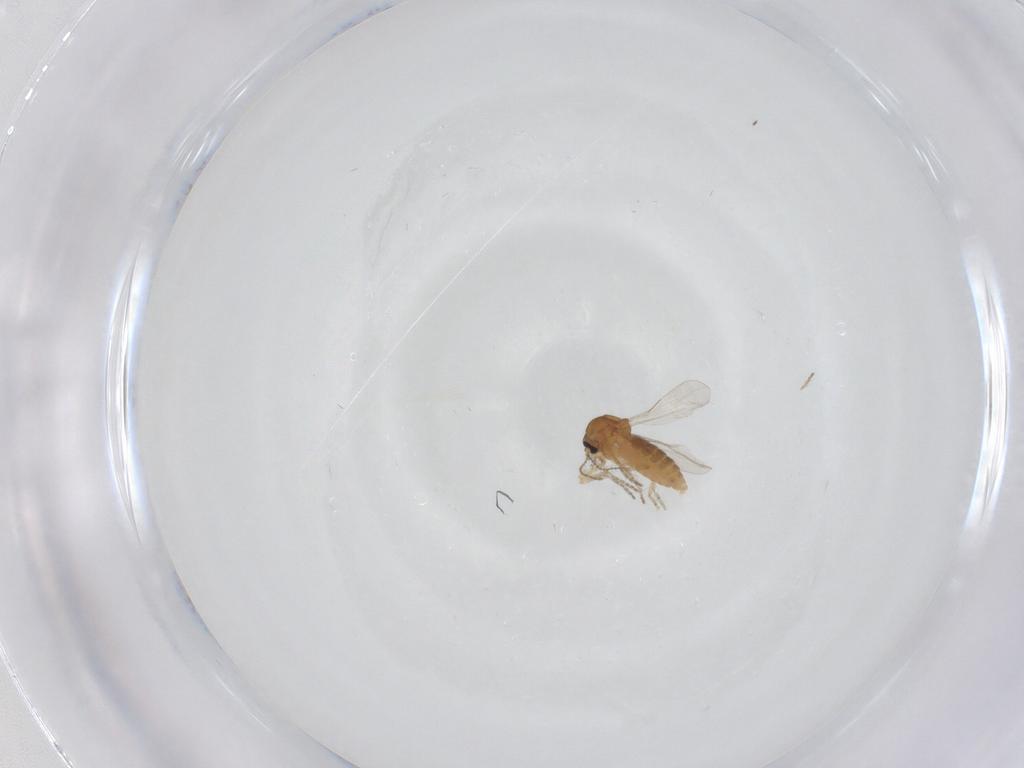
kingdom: Animalia
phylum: Arthropoda
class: Insecta
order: Diptera
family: Ceratopogonidae
